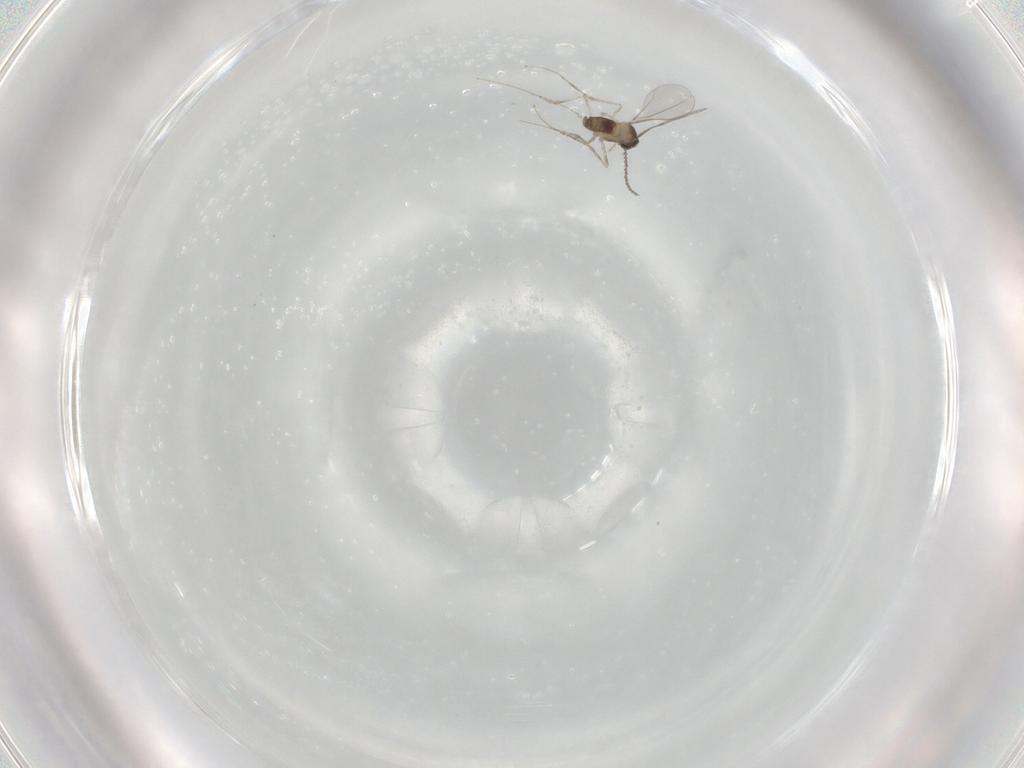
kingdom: Animalia
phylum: Arthropoda
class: Insecta
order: Diptera
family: Cecidomyiidae
